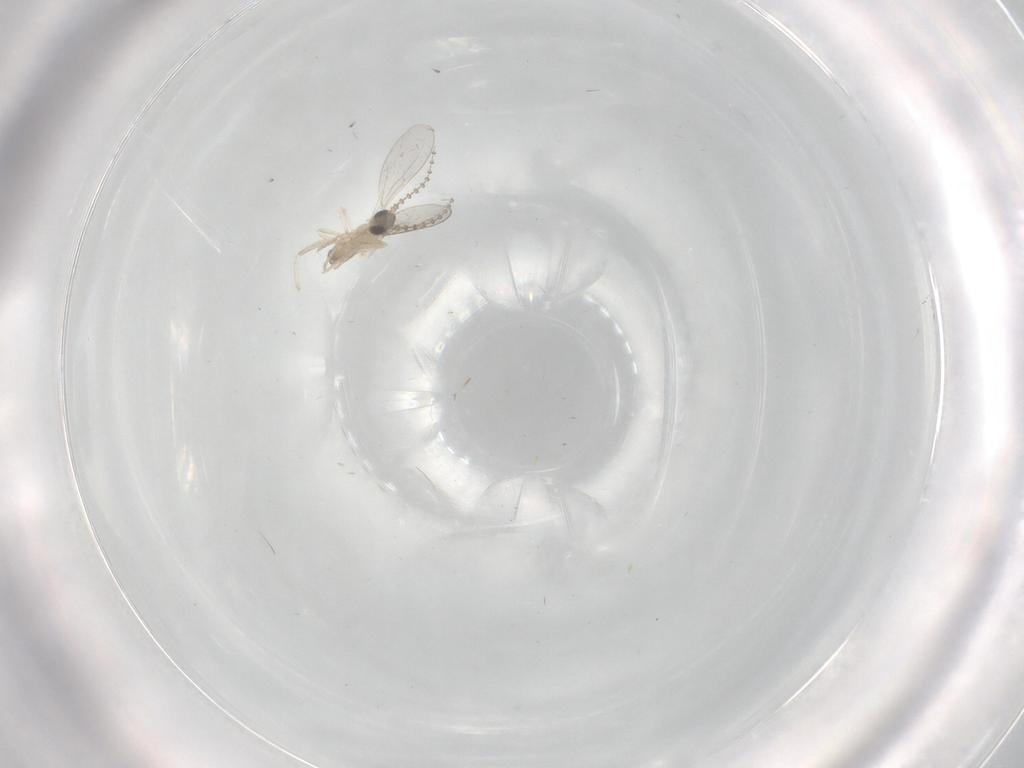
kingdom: Animalia
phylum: Arthropoda
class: Insecta
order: Diptera
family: Cecidomyiidae
